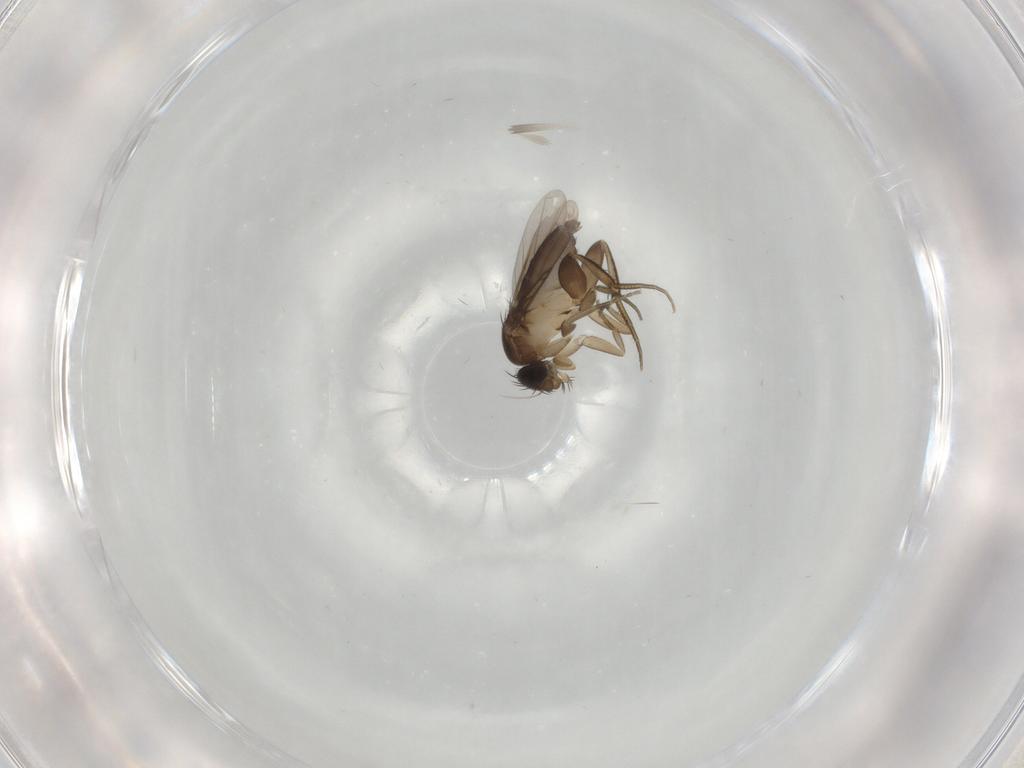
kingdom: Animalia
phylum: Arthropoda
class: Insecta
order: Diptera
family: Phoridae
